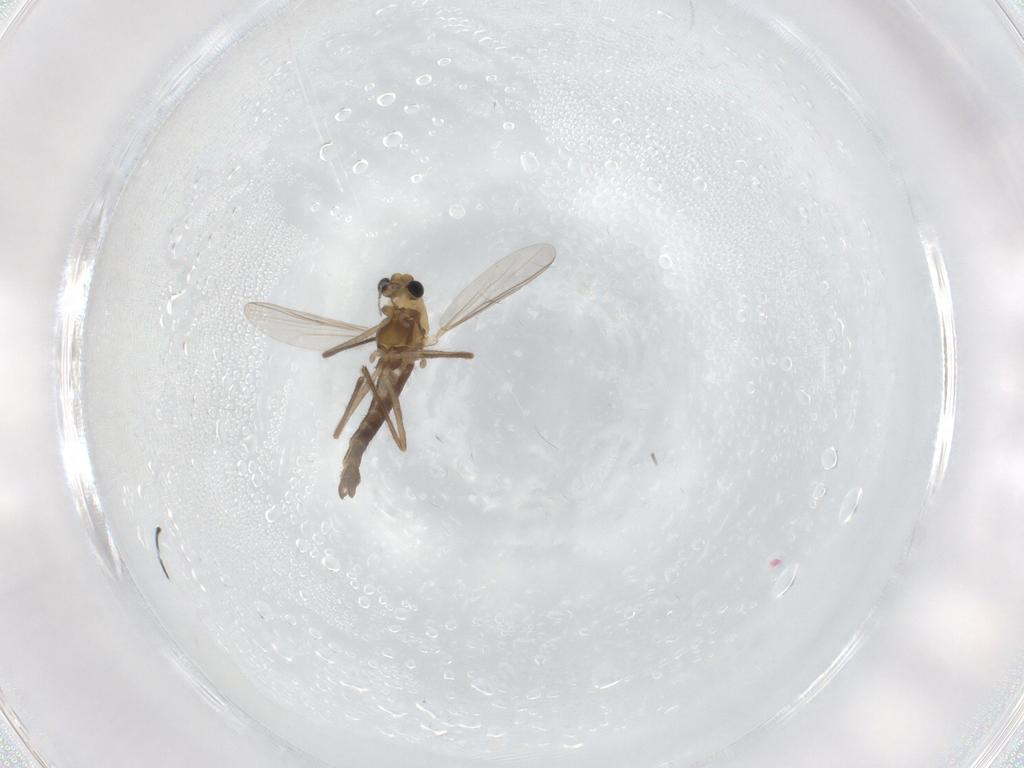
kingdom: Animalia
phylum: Arthropoda
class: Insecta
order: Diptera
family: Chironomidae
